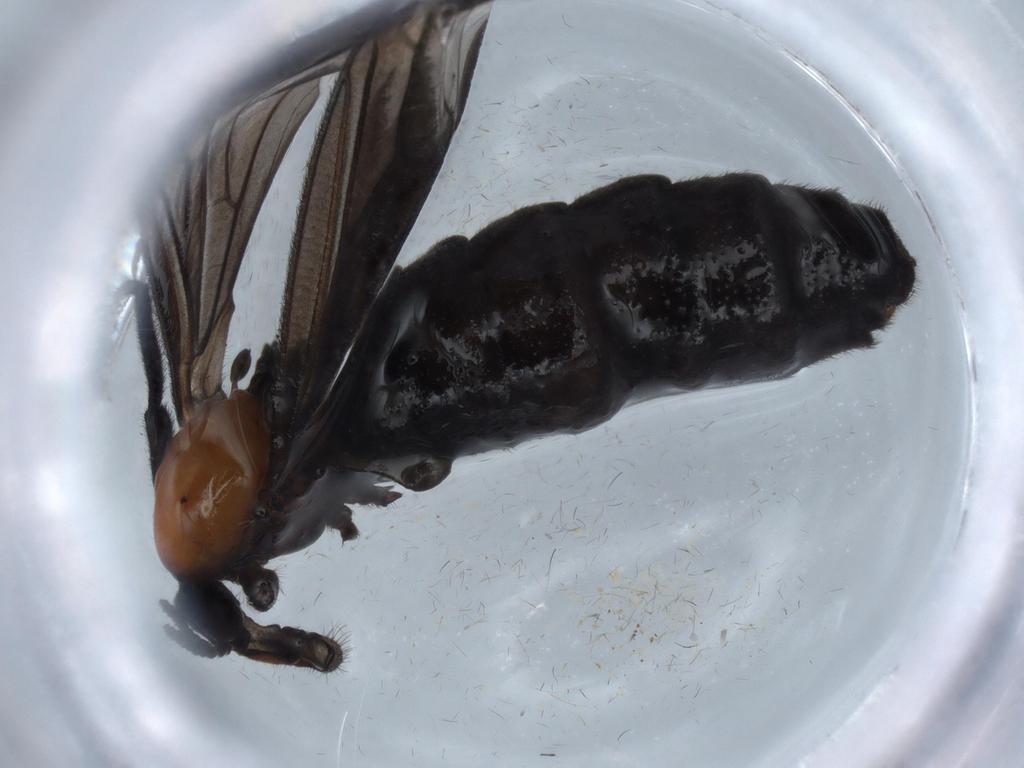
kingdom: Animalia
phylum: Arthropoda
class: Insecta
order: Diptera
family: Bibionidae
